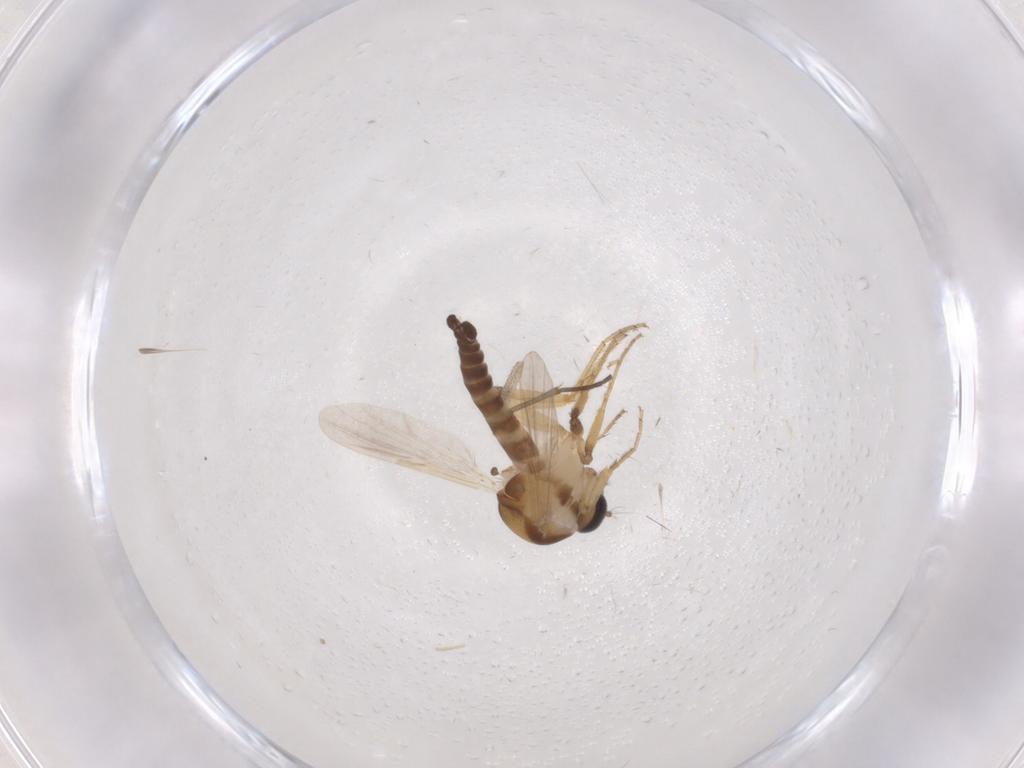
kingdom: Animalia
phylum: Arthropoda
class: Insecta
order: Diptera
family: Ceratopogonidae
